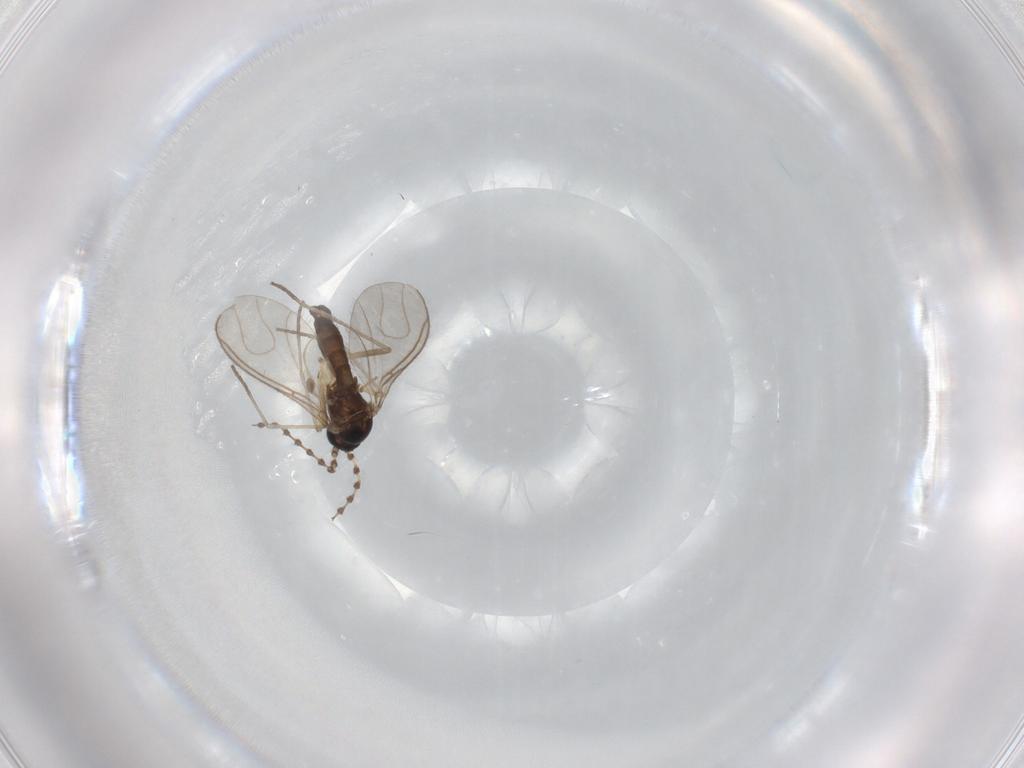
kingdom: Animalia
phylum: Arthropoda
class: Insecta
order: Diptera
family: Sciaridae
